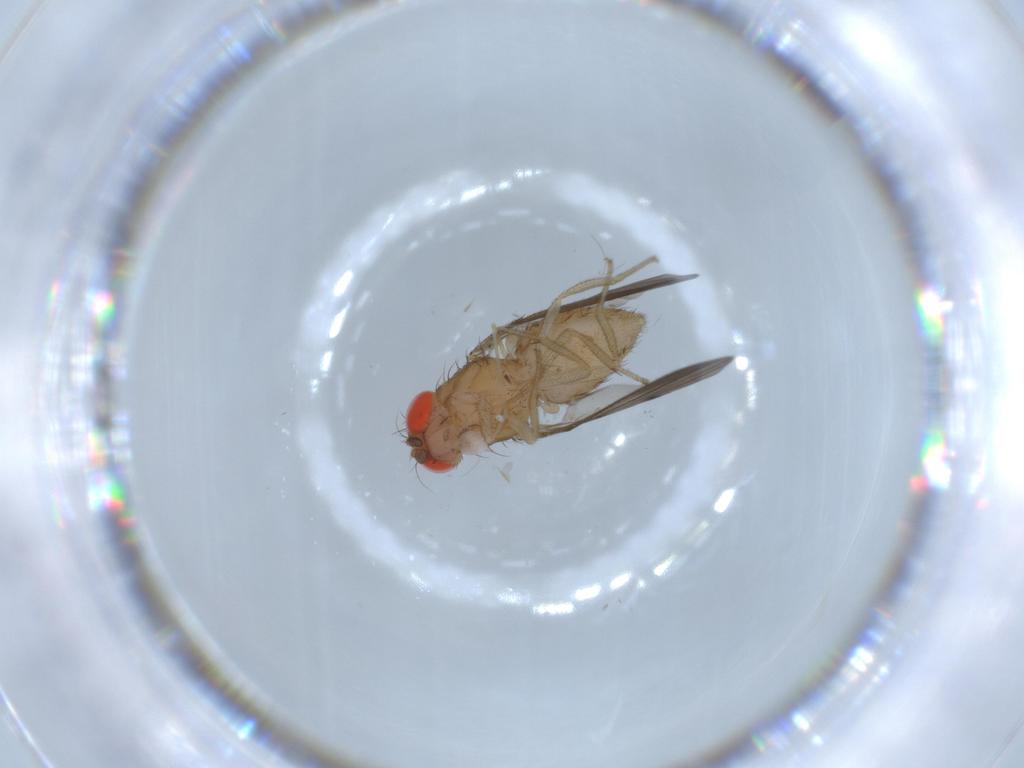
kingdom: Animalia
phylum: Arthropoda
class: Insecta
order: Diptera
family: Drosophilidae
